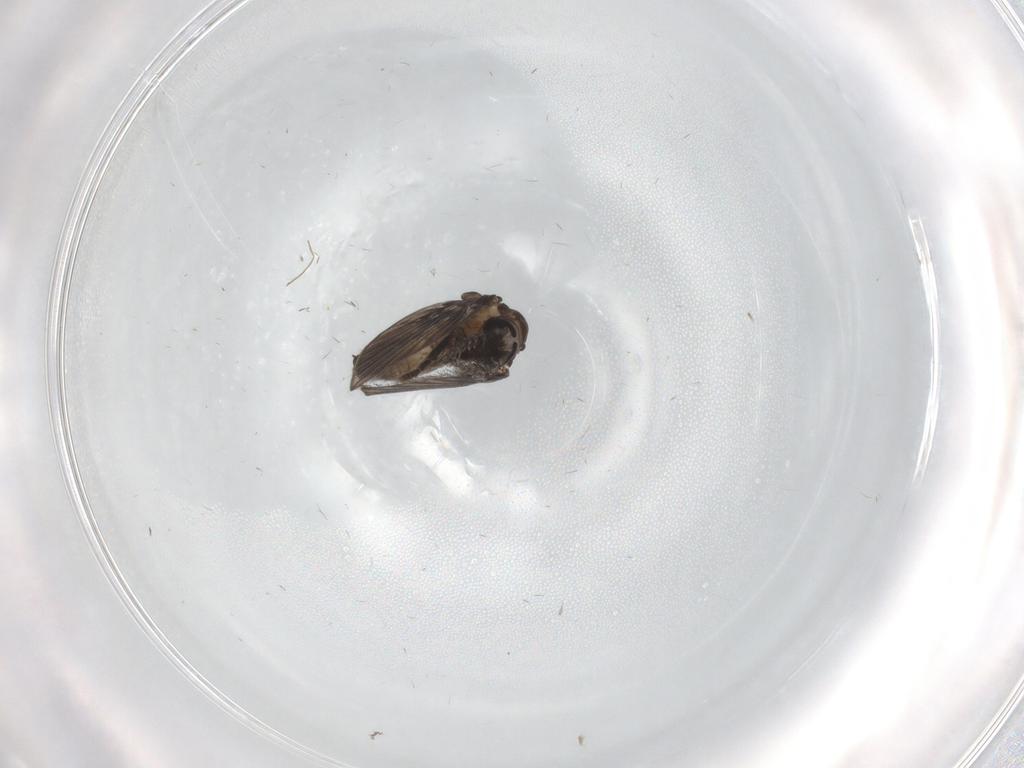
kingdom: Animalia
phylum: Arthropoda
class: Insecta
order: Diptera
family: Psychodidae
